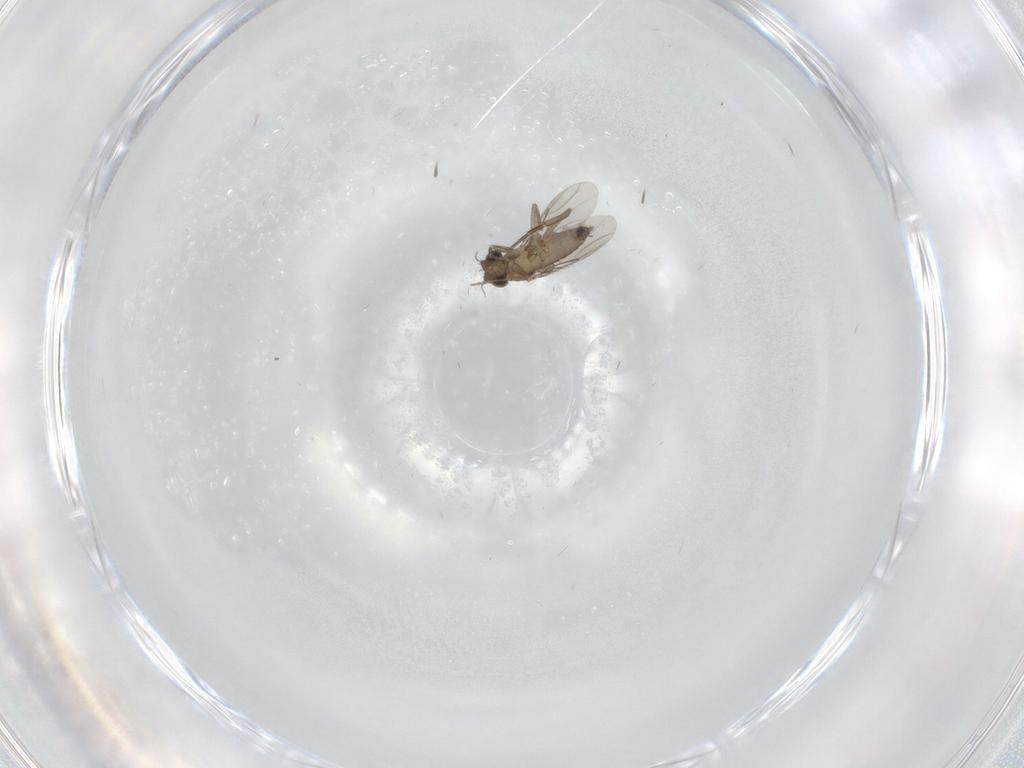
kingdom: Animalia
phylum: Arthropoda
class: Insecta
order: Diptera
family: Phoridae
